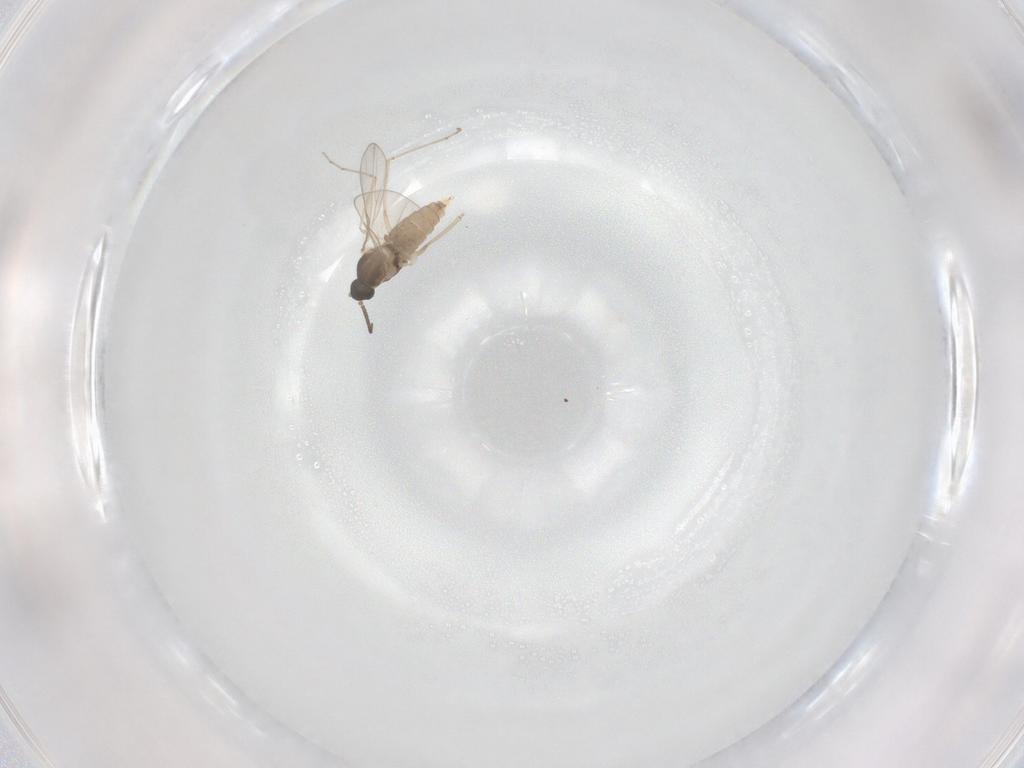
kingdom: Animalia
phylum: Arthropoda
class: Insecta
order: Diptera
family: Cecidomyiidae
